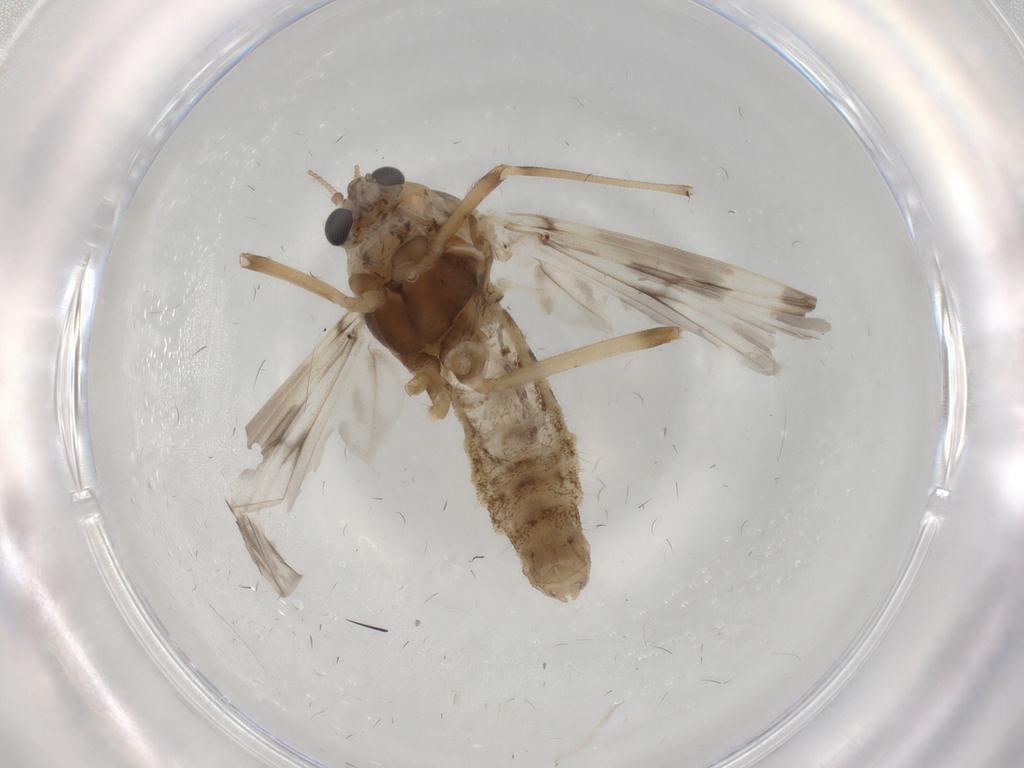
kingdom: Animalia
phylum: Arthropoda
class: Insecta
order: Diptera
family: Chironomidae
